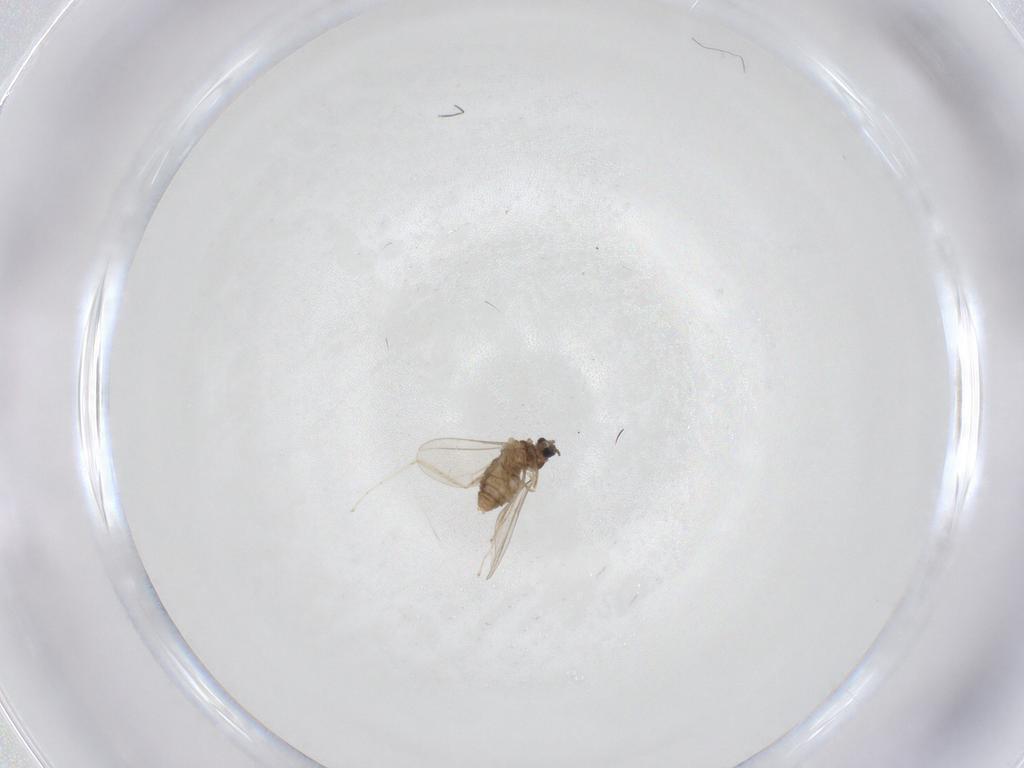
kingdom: Animalia
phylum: Arthropoda
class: Insecta
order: Diptera
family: Cecidomyiidae
